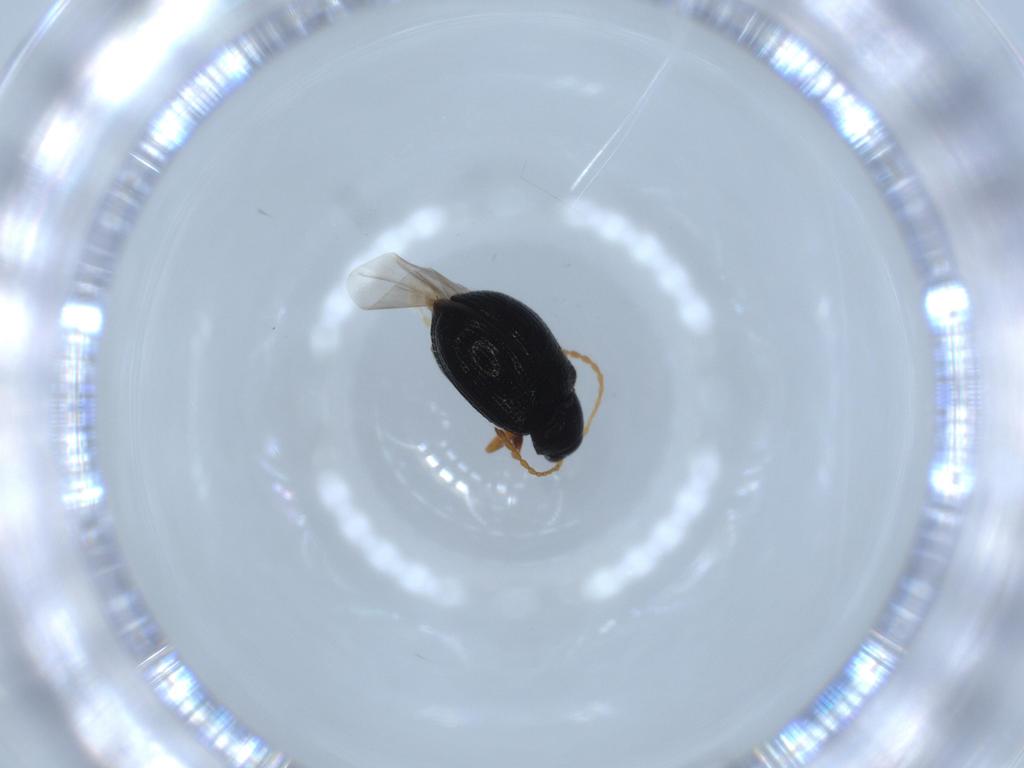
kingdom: Animalia
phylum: Arthropoda
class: Insecta
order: Coleoptera
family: Chrysomelidae
